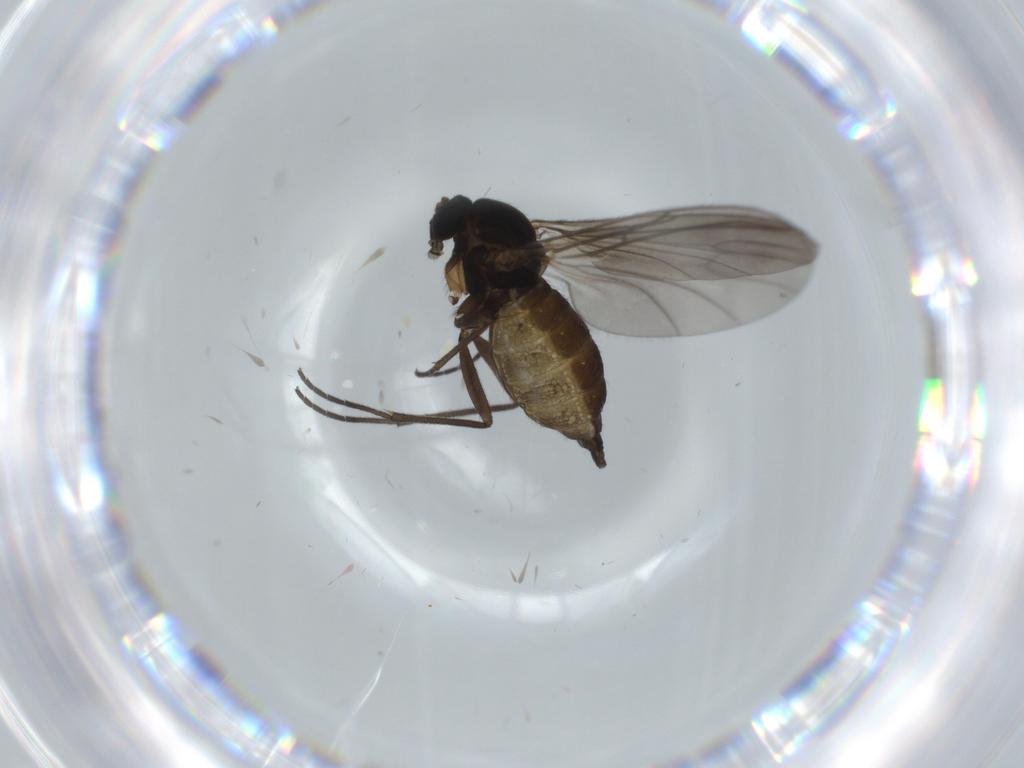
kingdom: Animalia
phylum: Arthropoda
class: Insecta
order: Diptera
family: Sciaridae
